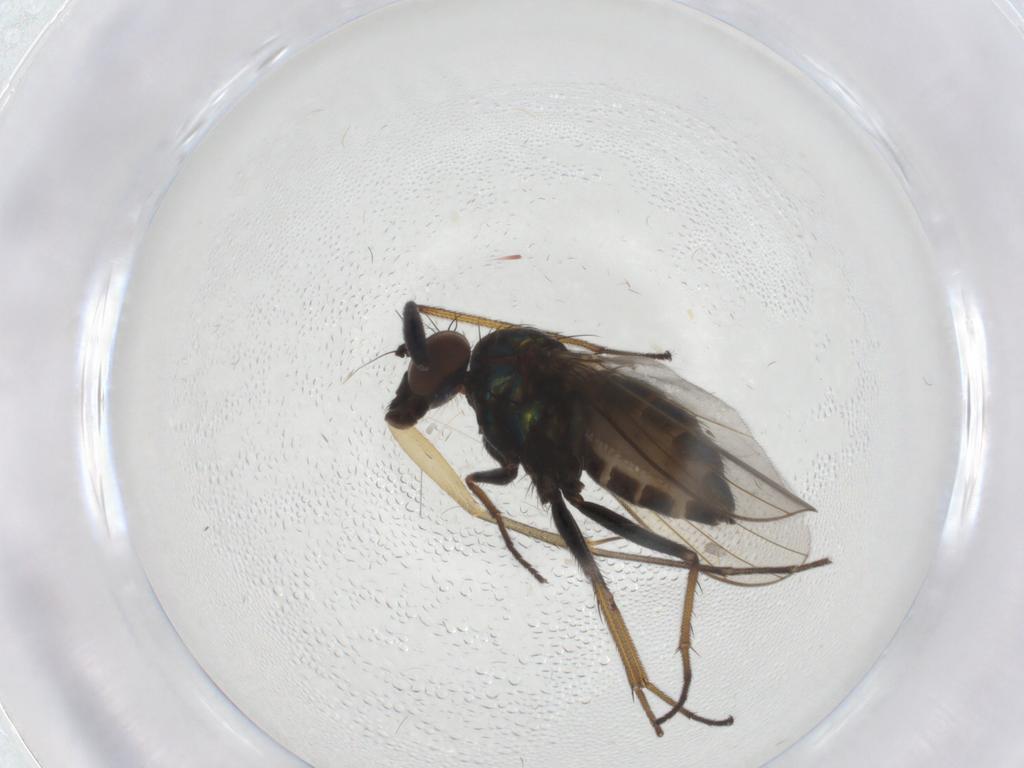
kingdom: Animalia
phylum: Arthropoda
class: Insecta
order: Diptera
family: Dolichopodidae
